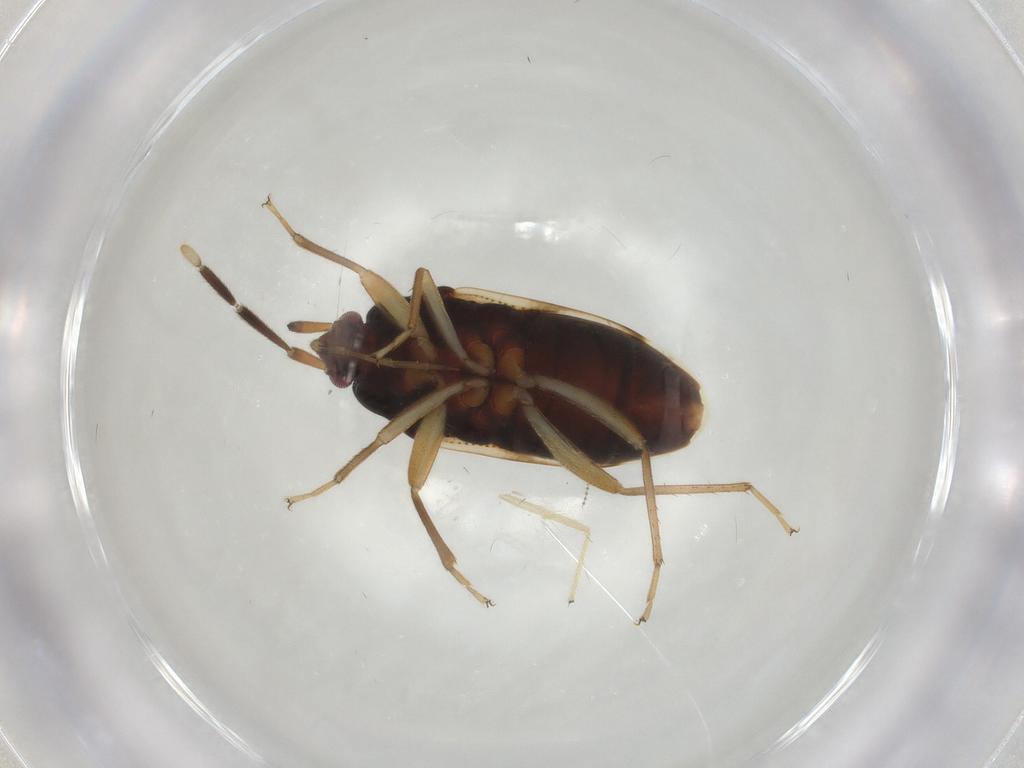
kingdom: Animalia
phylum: Arthropoda
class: Insecta
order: Hemiptera
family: Rhyparochromidae
